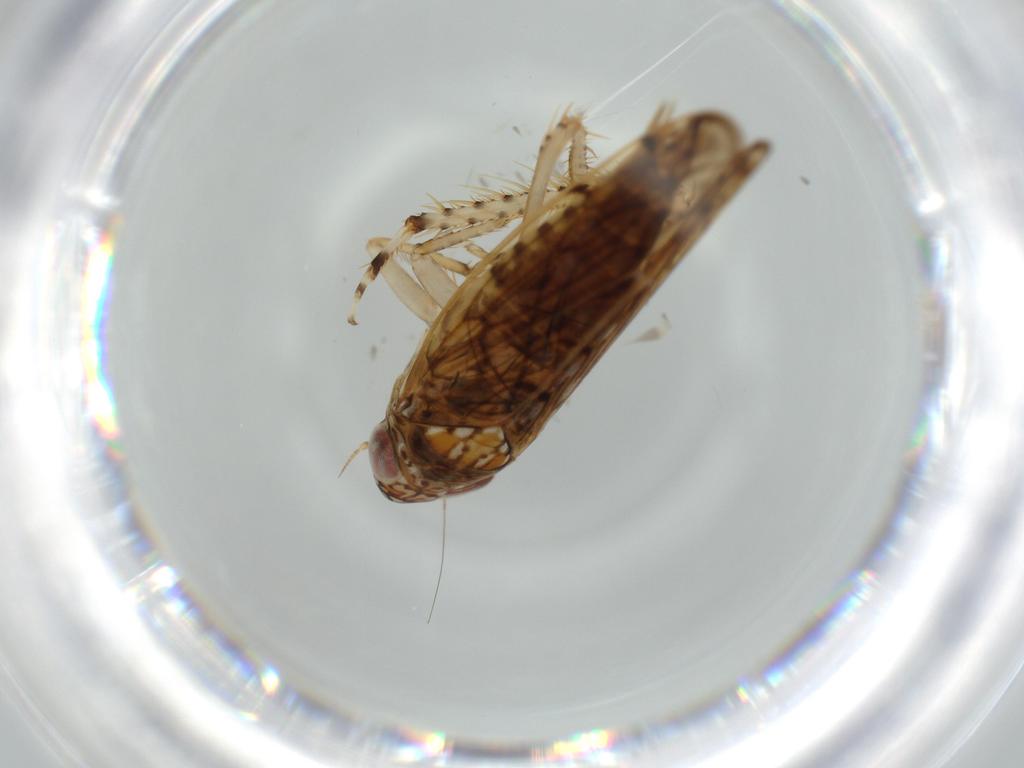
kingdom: Animalia
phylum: Arthropoda
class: Insecta
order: Hemiptera
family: Cicadellidae
